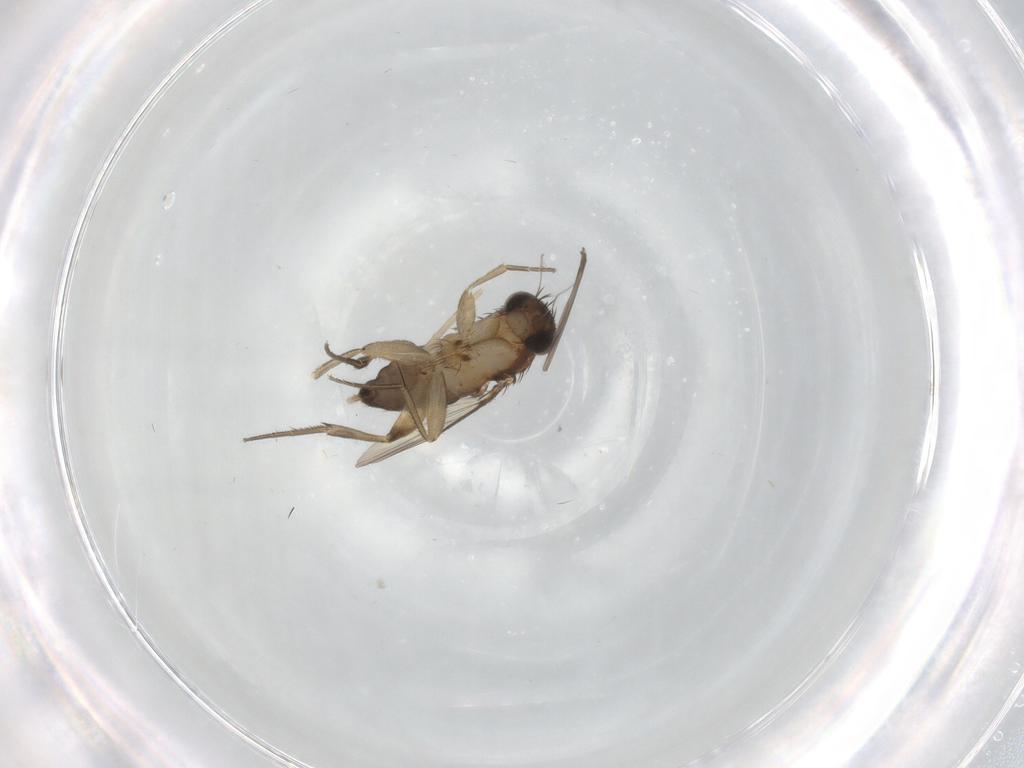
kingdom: Animalia
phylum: Arthropoda
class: Insecta
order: Diptera
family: Phoridae
